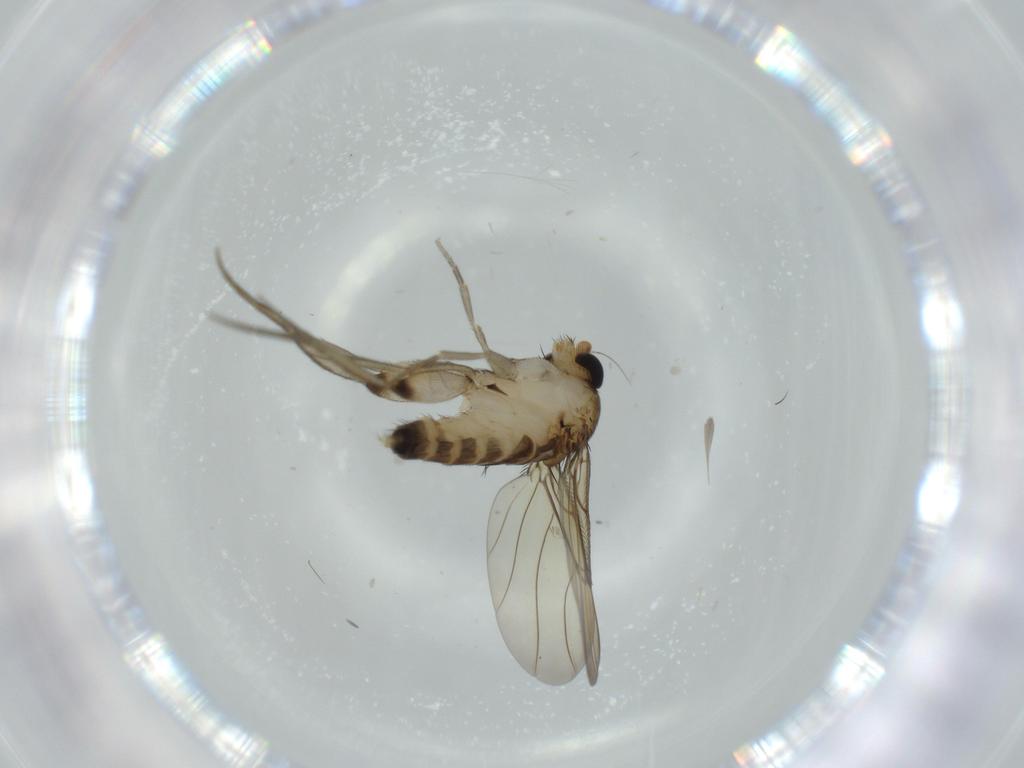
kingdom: Animalia
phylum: Arthropoda
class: Insecta
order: Diptera
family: Phoridae
